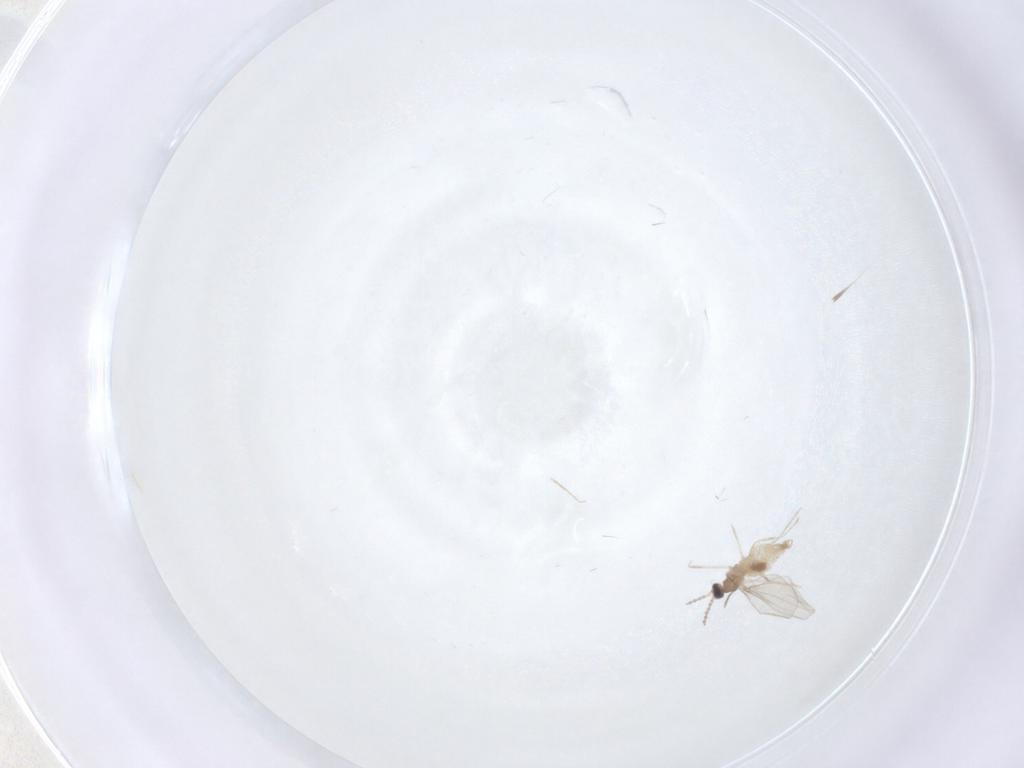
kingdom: Animalia
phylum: Arthropoda
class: Insecta
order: Diptera
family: Cecidomyiidae
